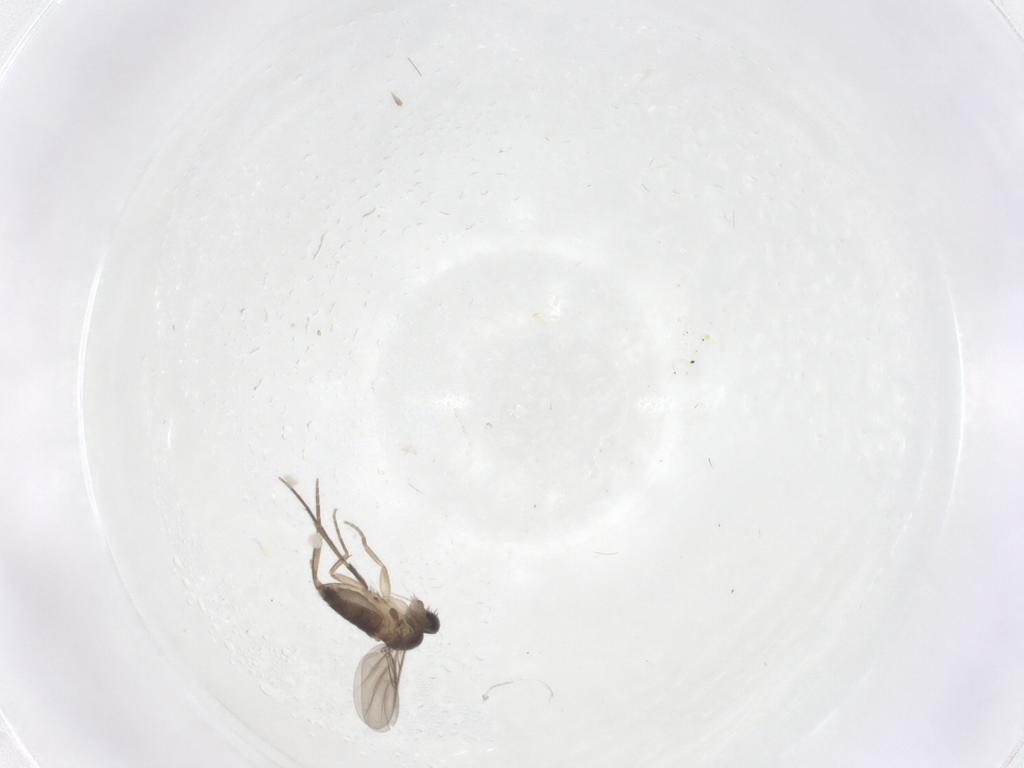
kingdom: Animalia
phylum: Arthropoda
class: Insecta
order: Diptera
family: Phoridae
